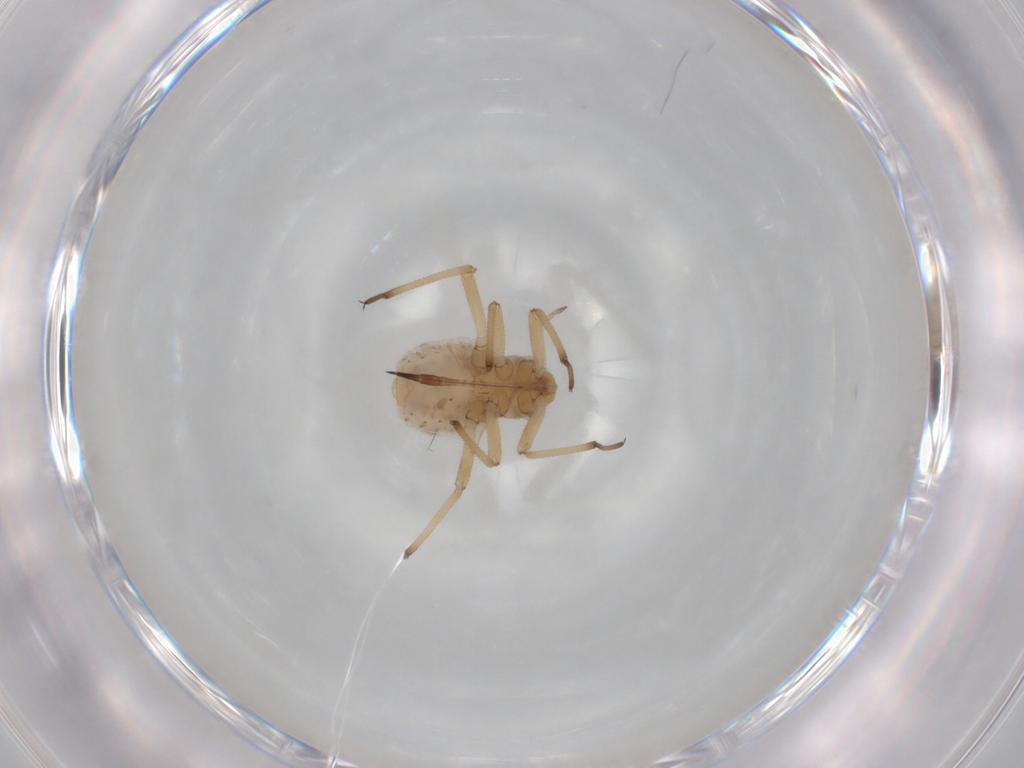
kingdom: Animalia
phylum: Arthropoda
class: Insecta
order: Hemiptera
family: Aphididae
